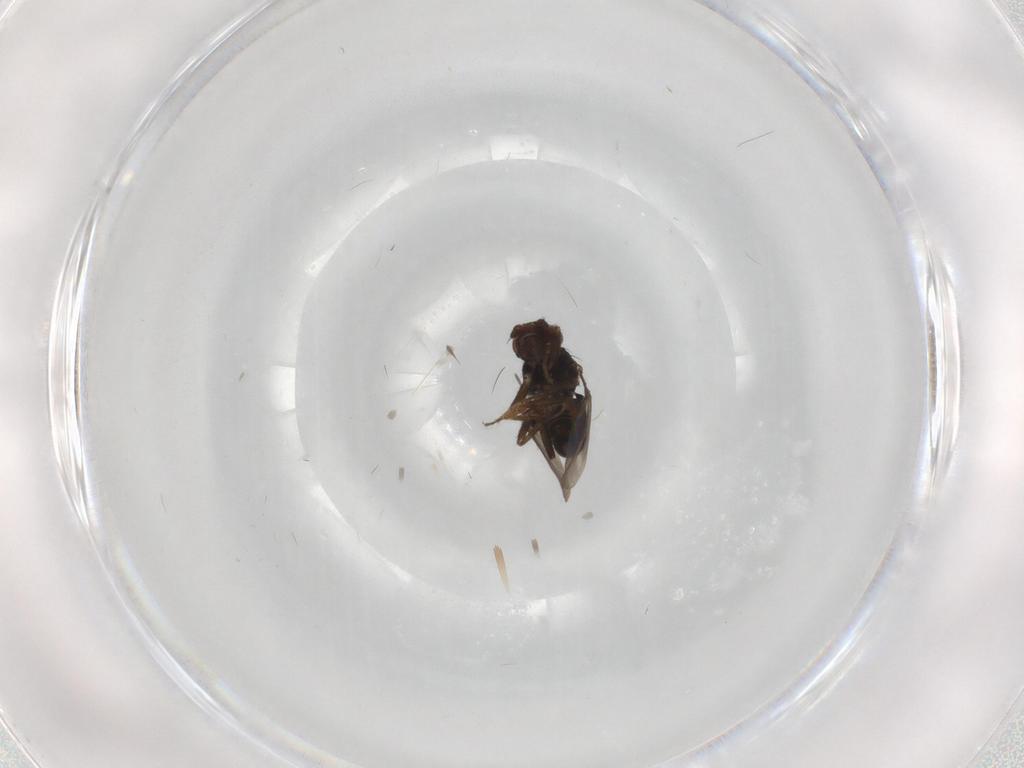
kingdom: Animalia
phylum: Arthropoda
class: Insecta
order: Diptera
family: Sphaeroceridae
